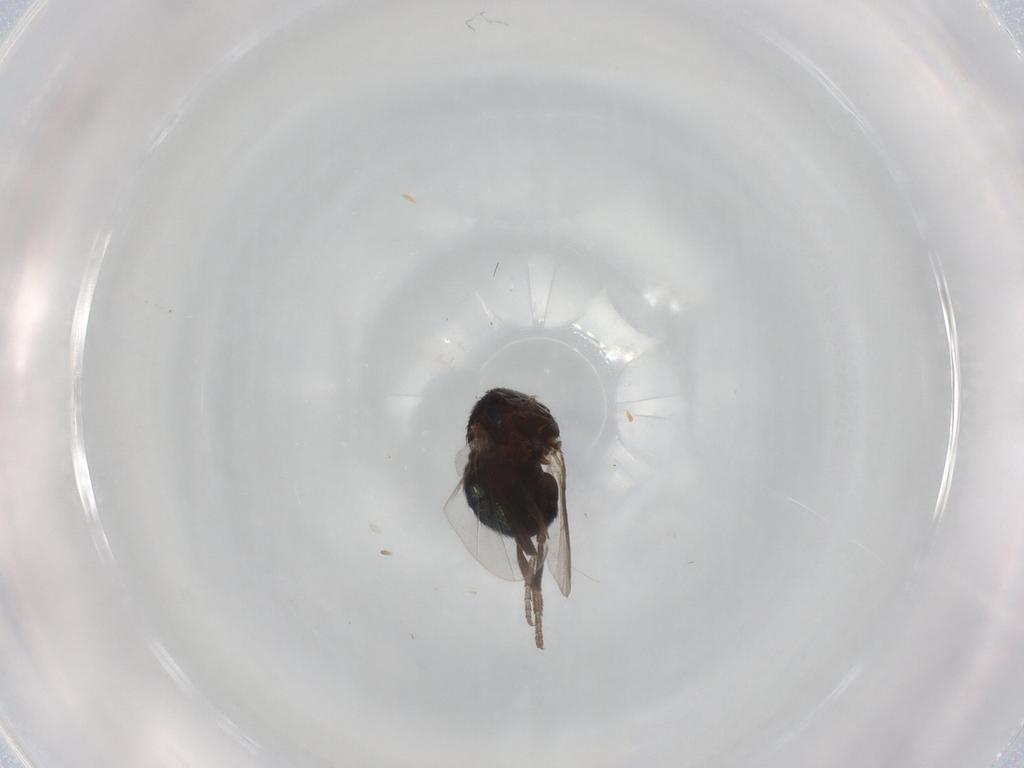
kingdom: Animalia
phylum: Arthropoda
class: Insecta
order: Diptera
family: Cryptochetidae
